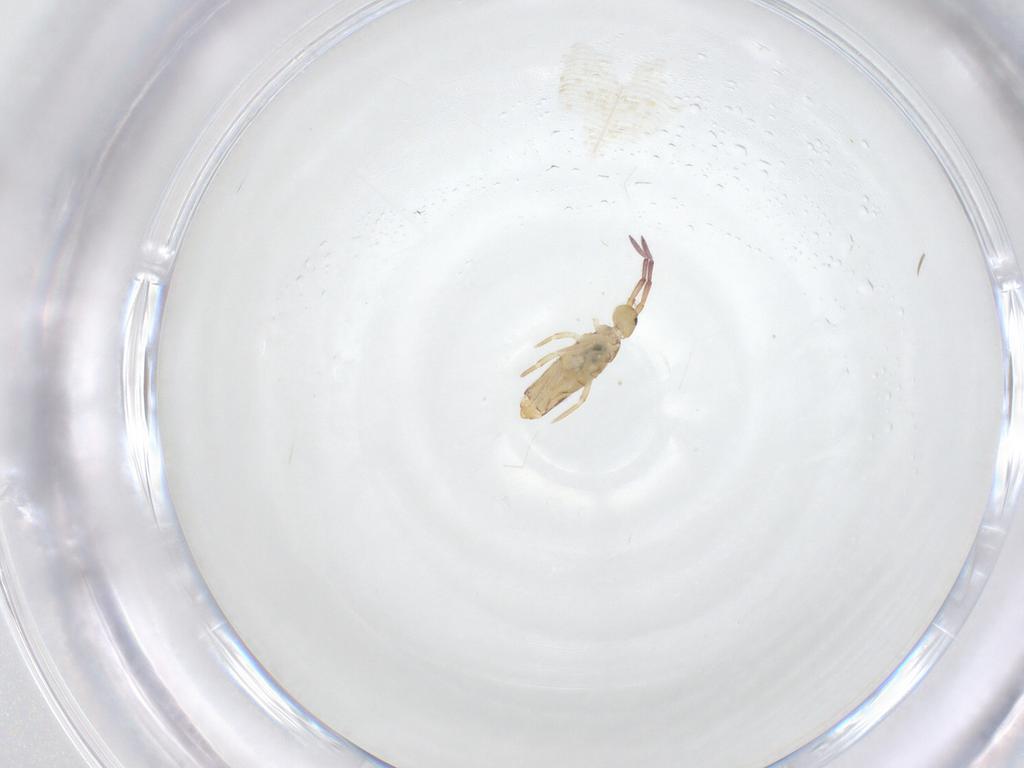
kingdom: Animalia
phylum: Arthropoda
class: Collembola
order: Entomobryomorpha
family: Entomobryidae
